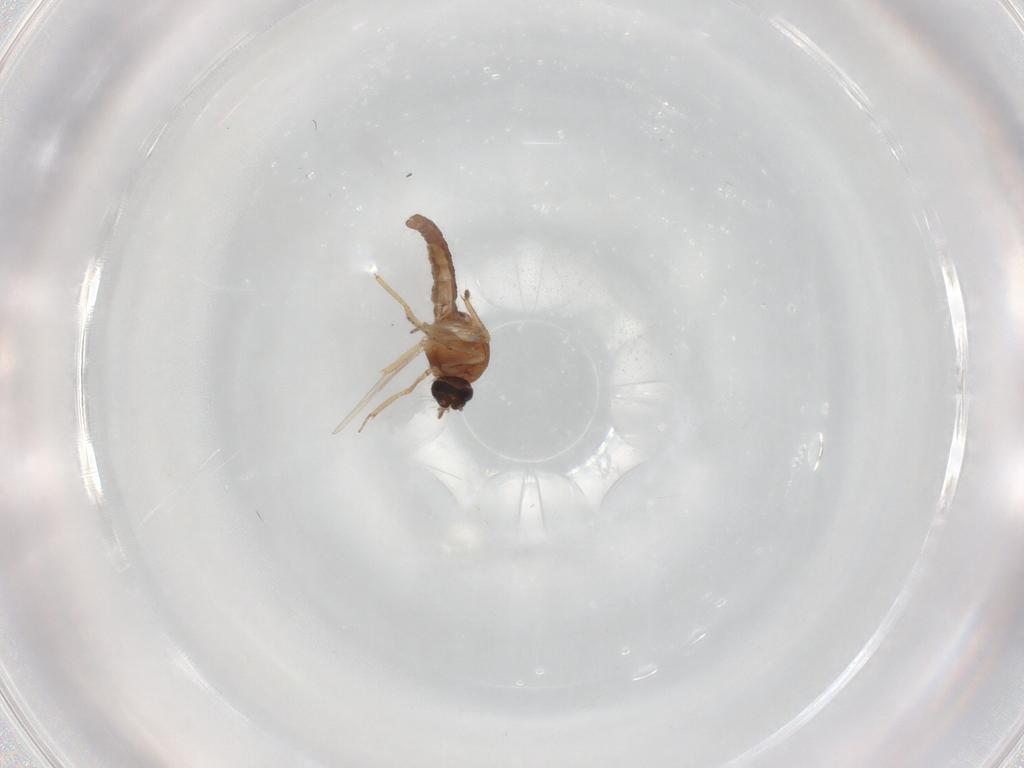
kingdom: Animalia
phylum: Arthropoda
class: Insecta
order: Diptera
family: Ceratopogonidae
